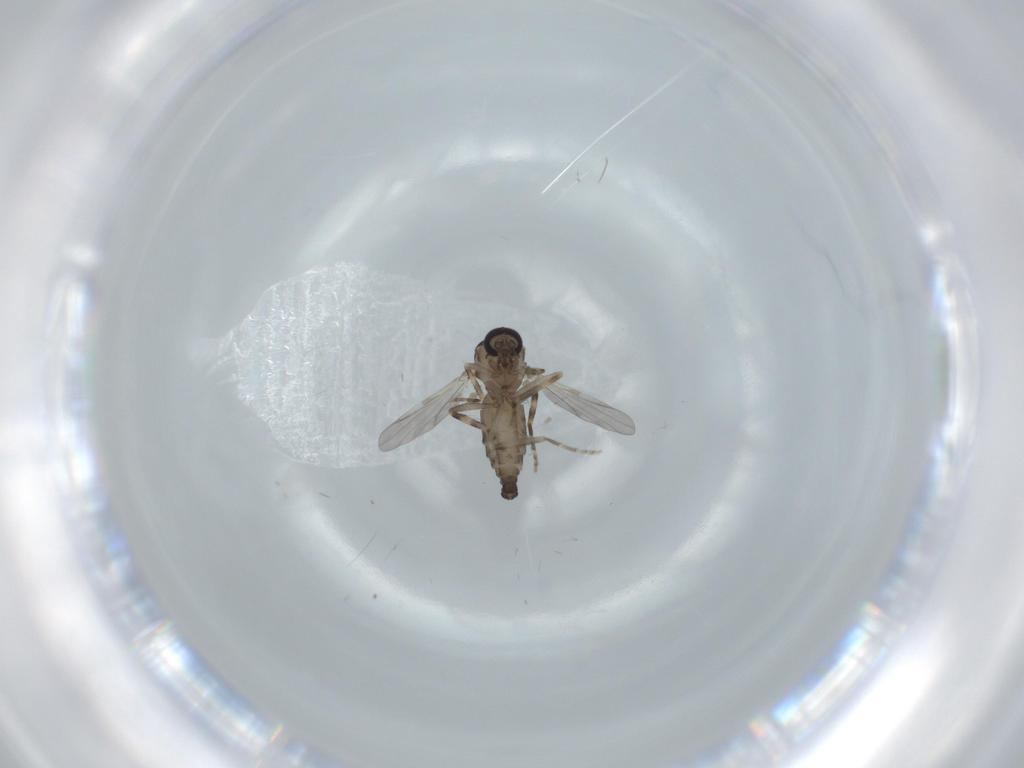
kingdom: Animalia
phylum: Arthropoda
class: Insecta
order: Diptera
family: Ceratopogonidae
